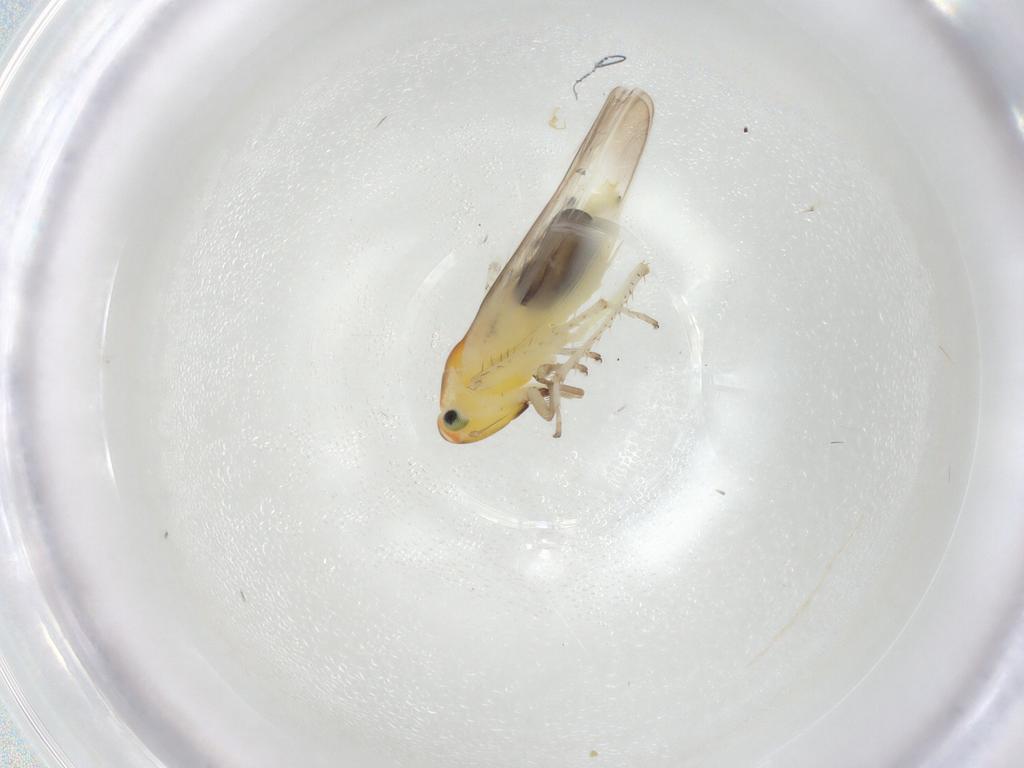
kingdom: Animalia
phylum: Arthropoda
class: Insecta
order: Hemiptera
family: Cicadellidae
